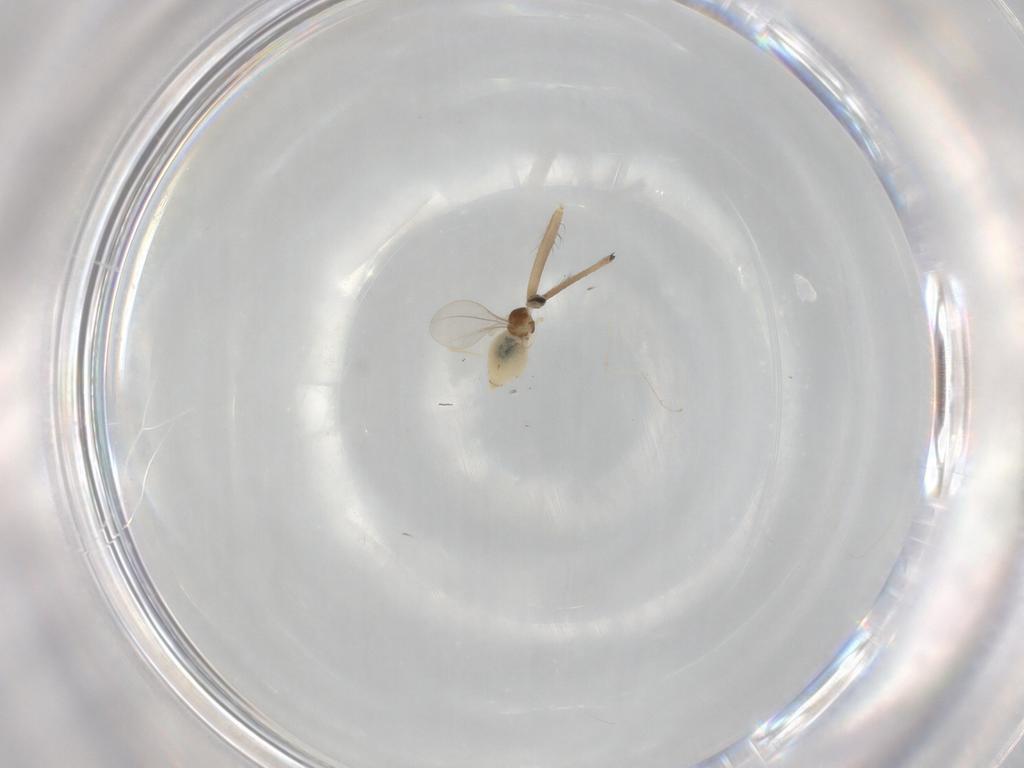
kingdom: Animalia
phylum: Arthropoda
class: Insecta
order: Diptera
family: Cecidomyiidae
